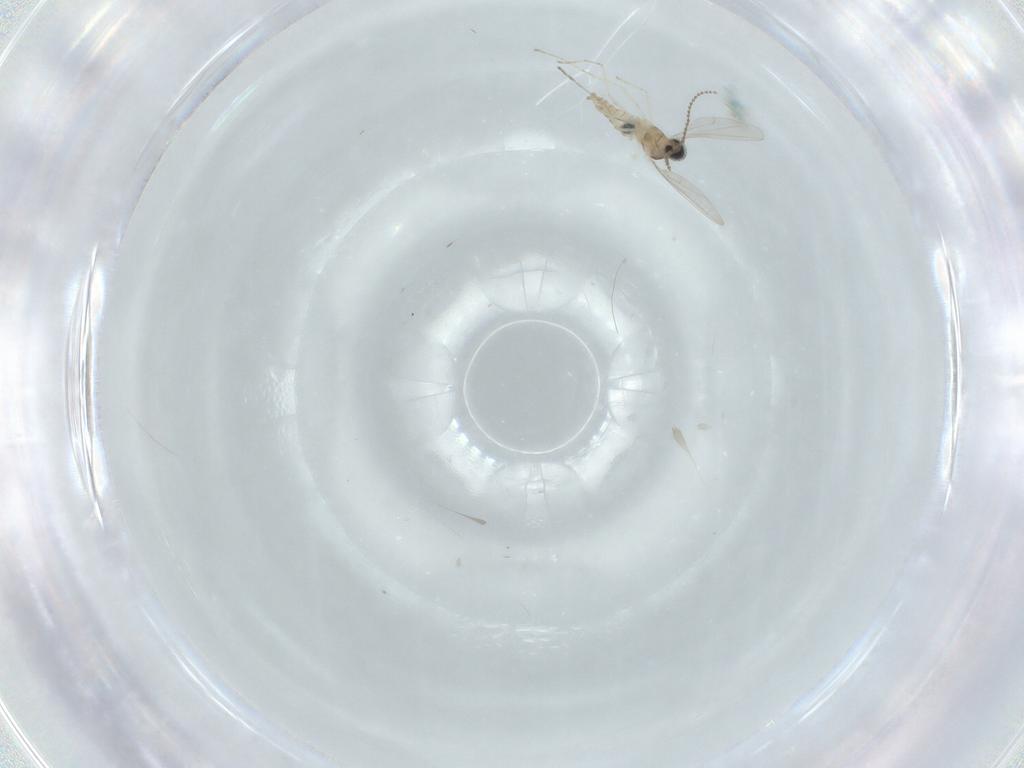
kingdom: Animalia
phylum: Arthropoda
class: Insecta
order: Diptera
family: Cecidomyiidae
